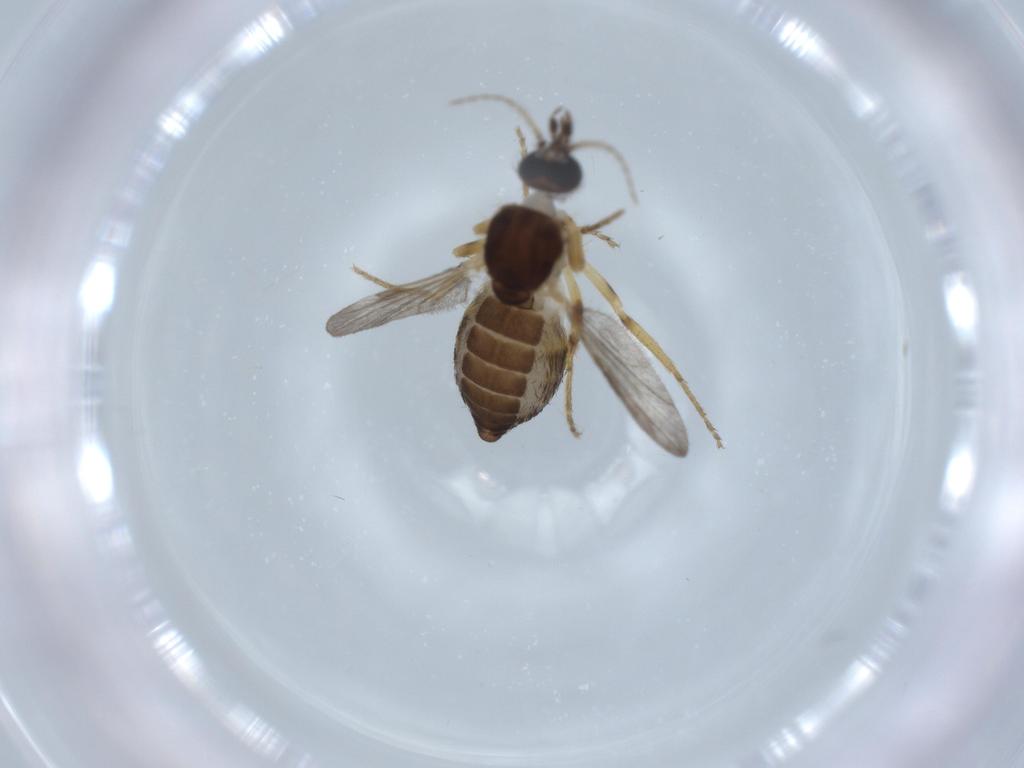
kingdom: Animalia
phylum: Arthropoda
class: Insecta
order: Diptera
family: Ceratopogonidae
